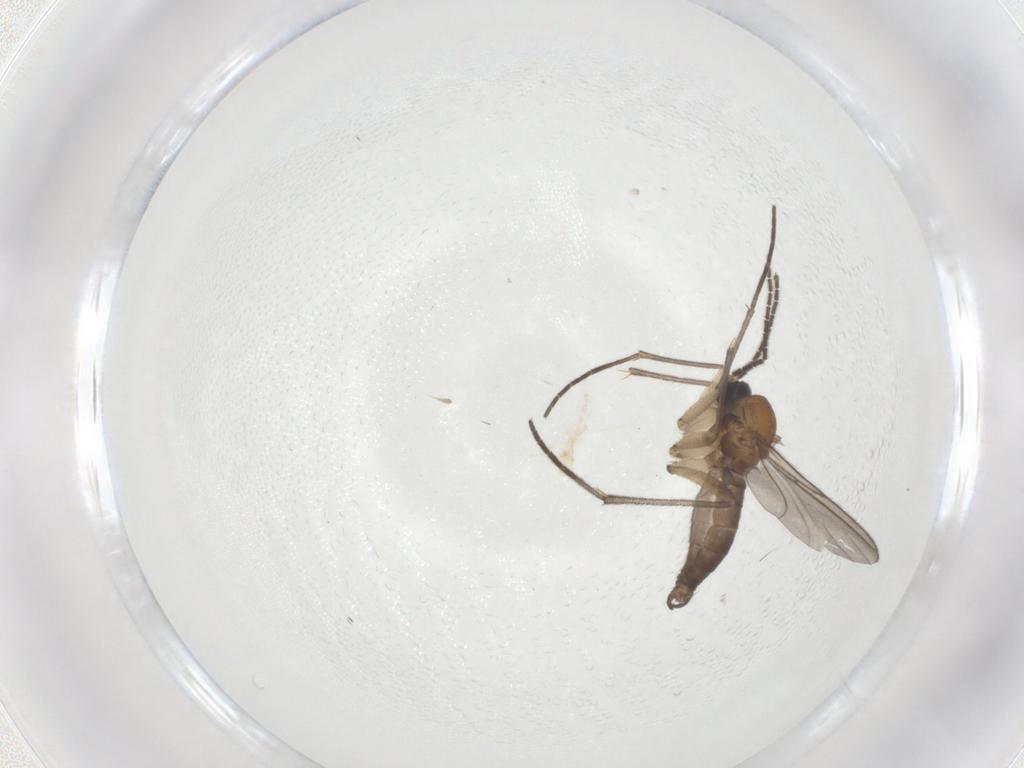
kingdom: Animalia
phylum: Arthropoda
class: Insecta
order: Diptera
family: Sciaridae
